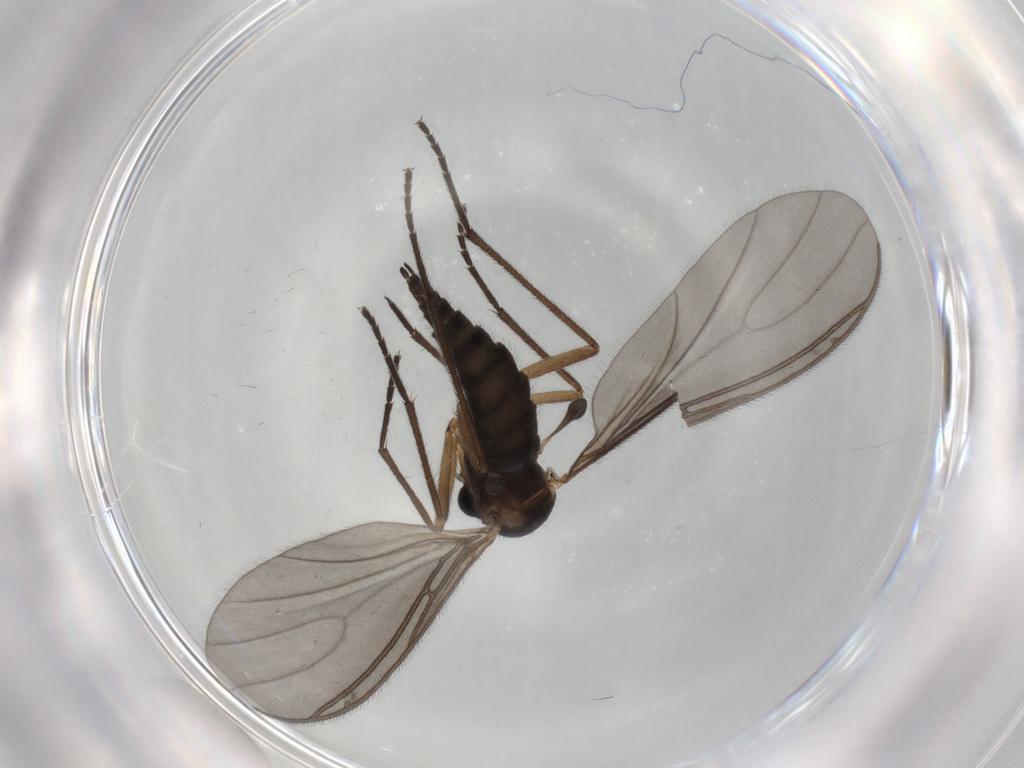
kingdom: Animalia
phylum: Arthropoda
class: Insecta
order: Diptera
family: Sciaridae
